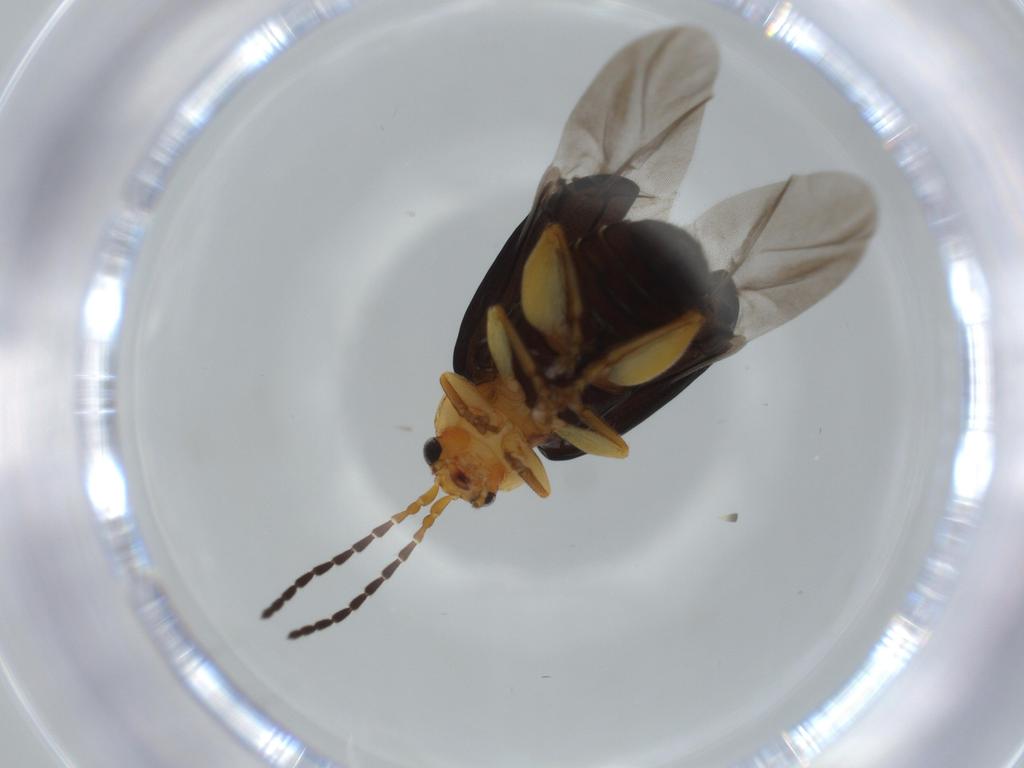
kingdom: Animalia
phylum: Arthropoda
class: Insecta
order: Coleoptera
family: Chrysomelidae
